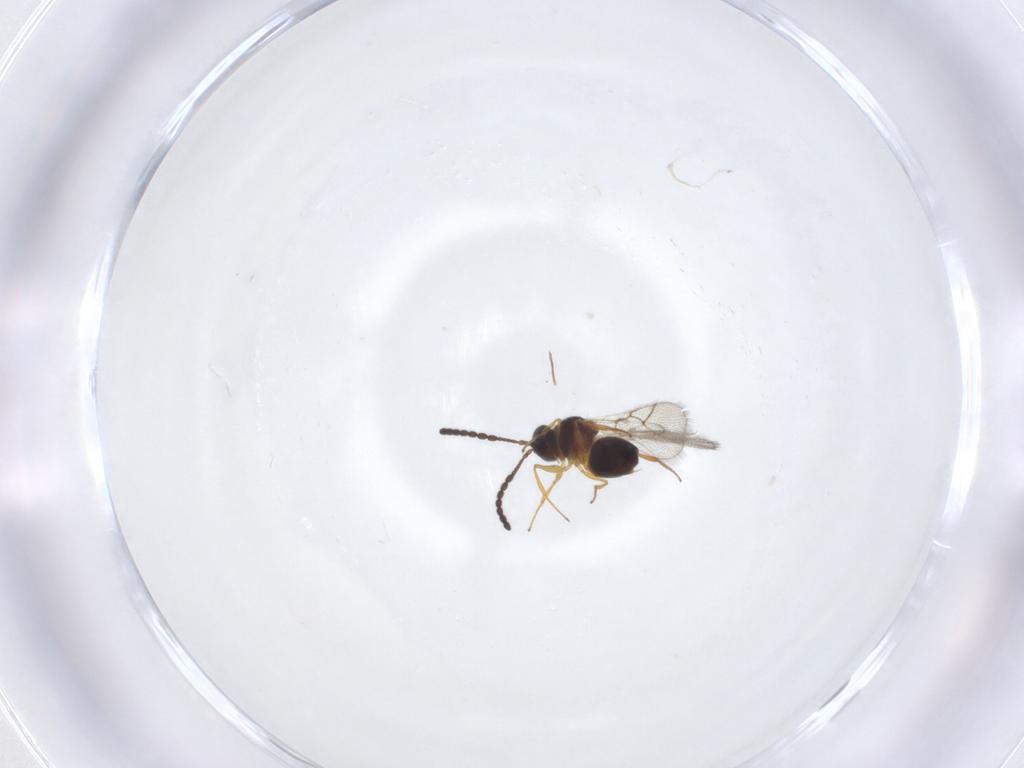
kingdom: Animalia
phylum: Arthropoda
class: Insecta
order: Hymenoptera
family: Figitidae
